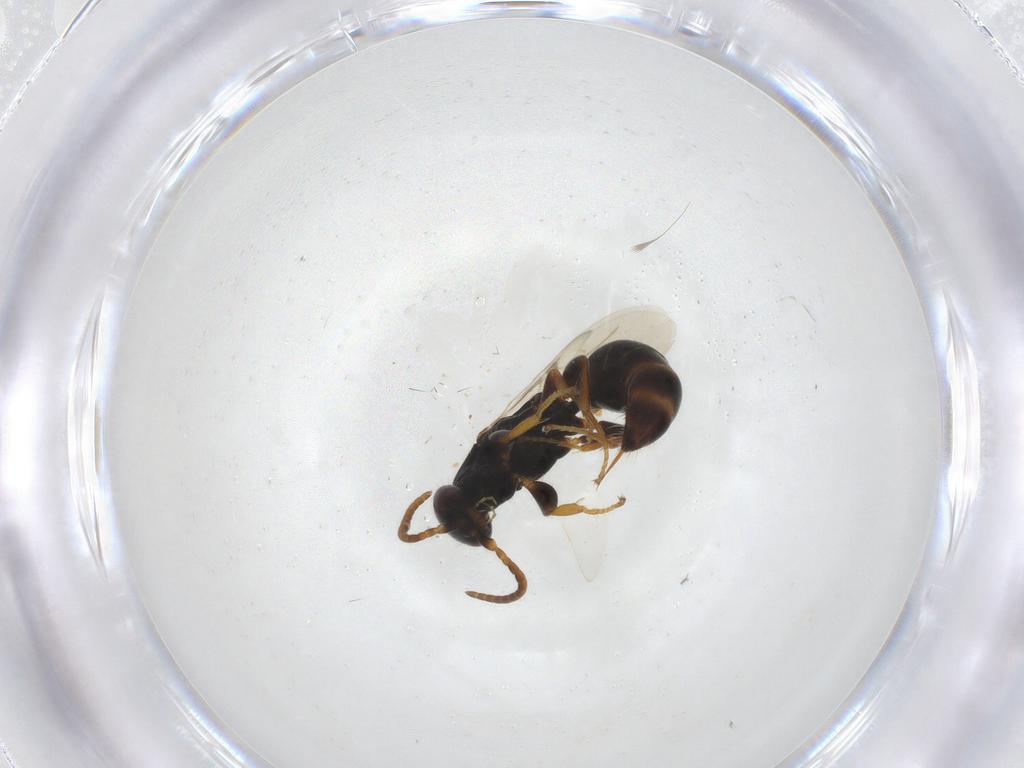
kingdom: Animalia
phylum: Arthropoda
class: Insecta
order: Hymenoptera
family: Bethylidae
